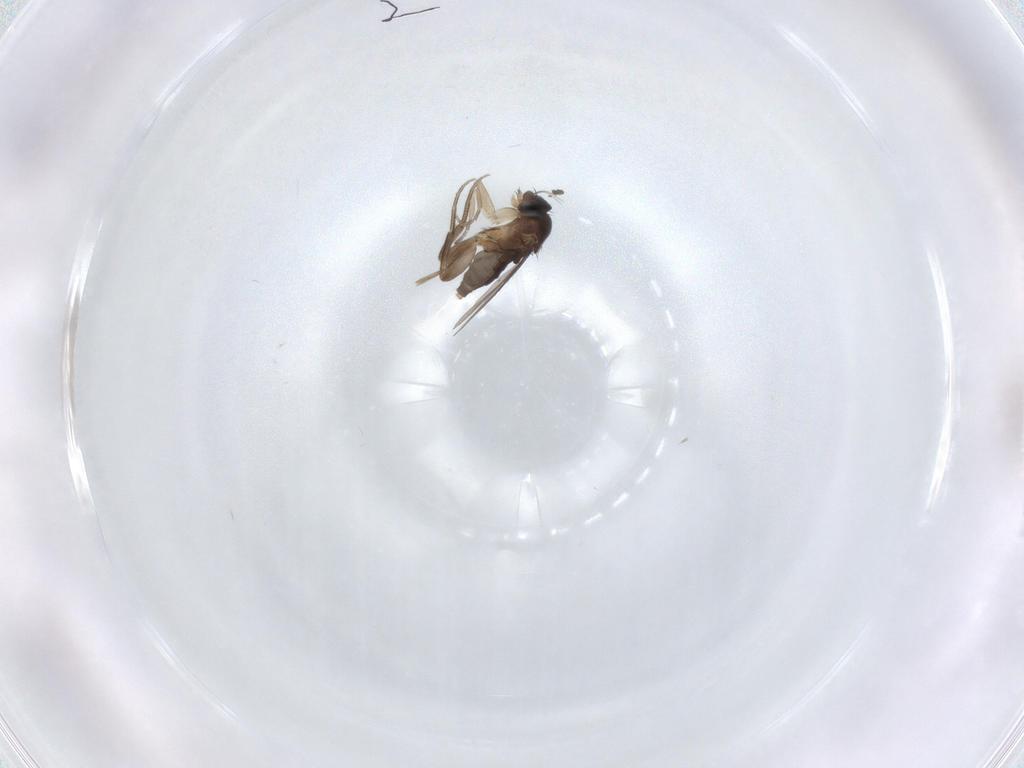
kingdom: Animalia
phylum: Arthropoda
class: Insecta
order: Diptera
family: Phoridae
